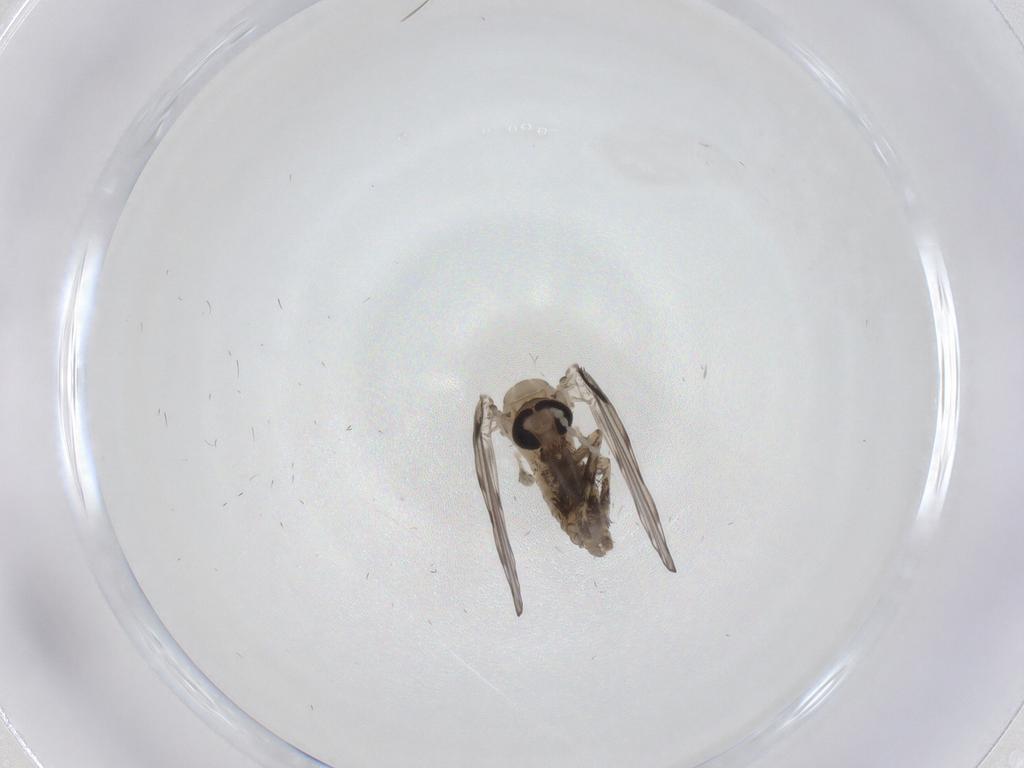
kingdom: Animalia
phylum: Arthropoda
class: Insecta
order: Diptera
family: Psychodidae
